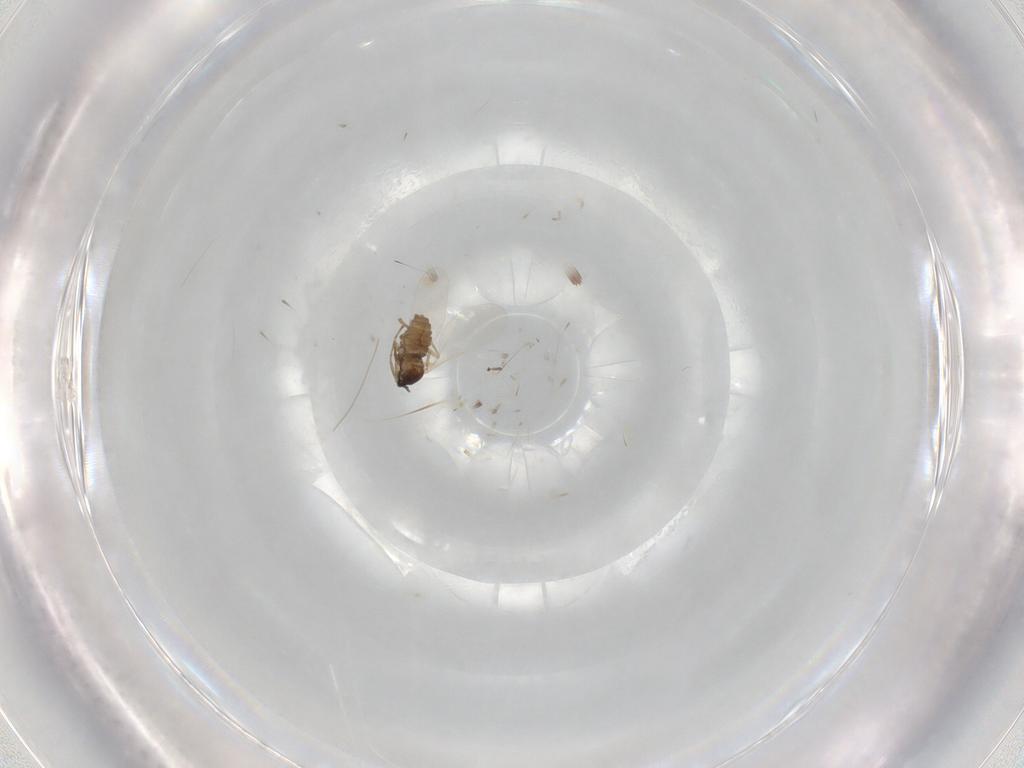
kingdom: Animalia
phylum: Arthropoda
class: Insecta
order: Diptera
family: Cecidomyiidae
